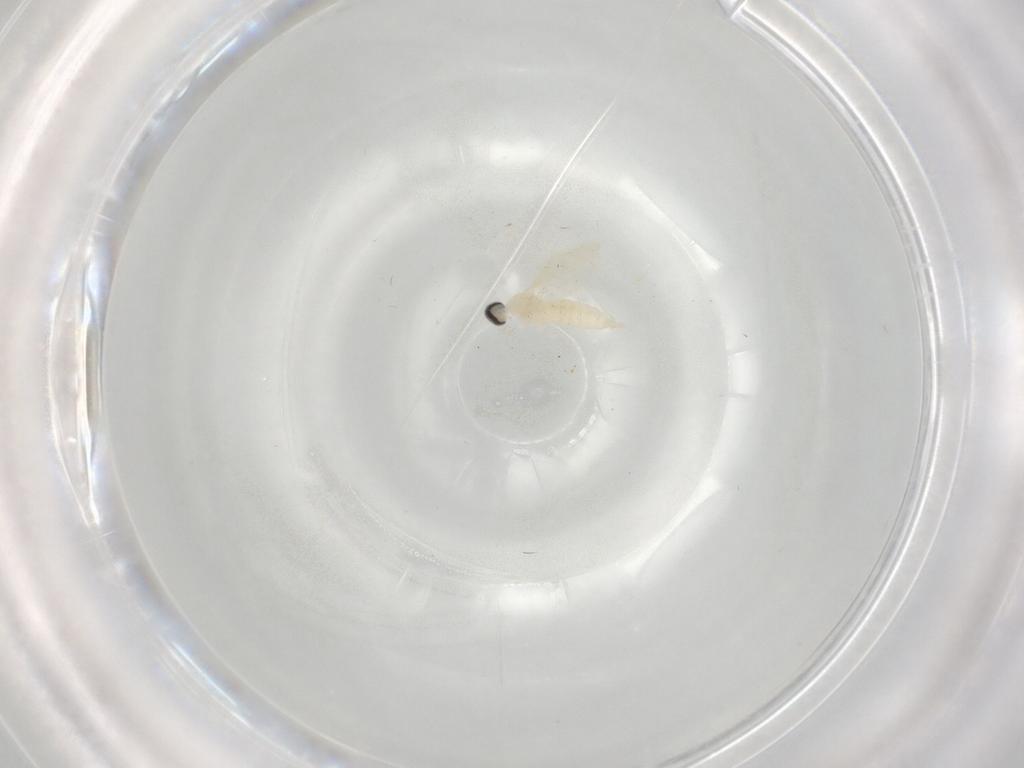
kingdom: Animalia
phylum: Arthropoda
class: Insecta
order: Diptera
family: Cecidomyiidae
